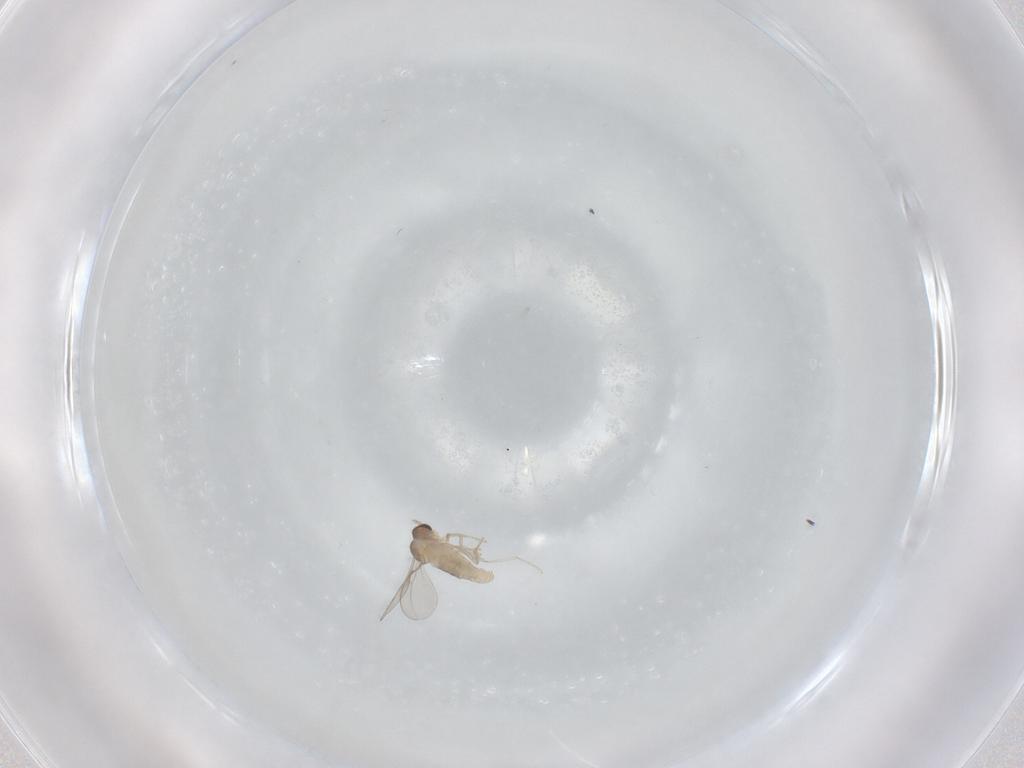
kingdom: Animalia
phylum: Arthropoda
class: Insecta
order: Diptera
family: Cecidomyiidae
